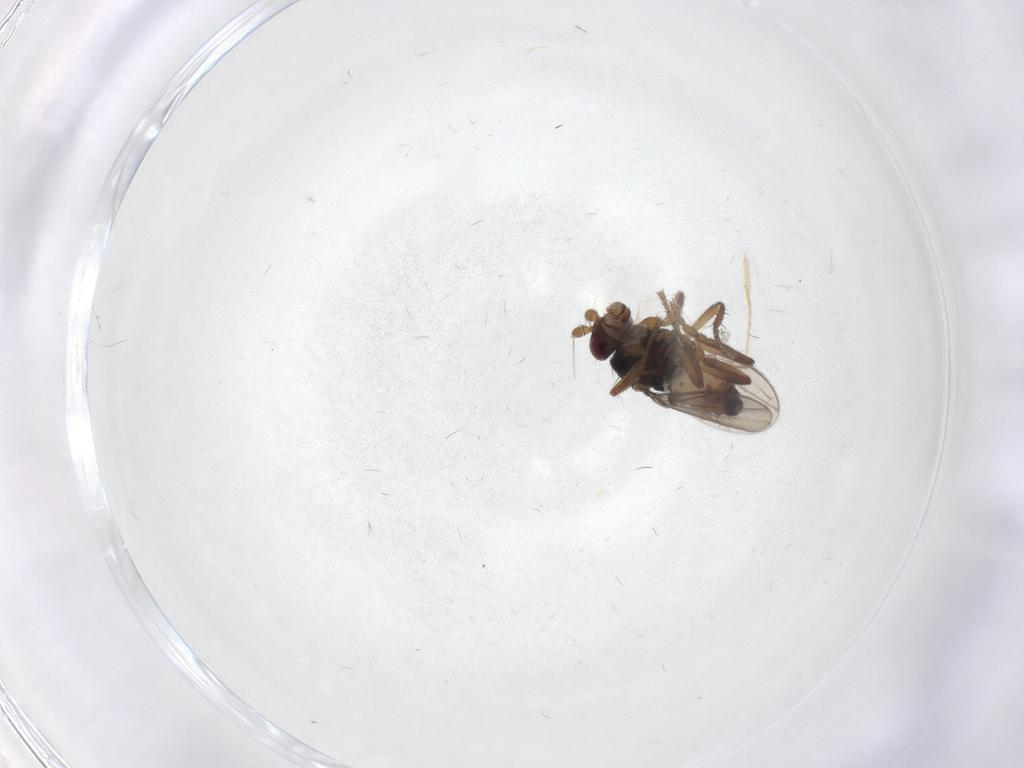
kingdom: Animalia
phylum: Arthropoda
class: Insecta
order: Diptera
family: Sphaeroceridae
